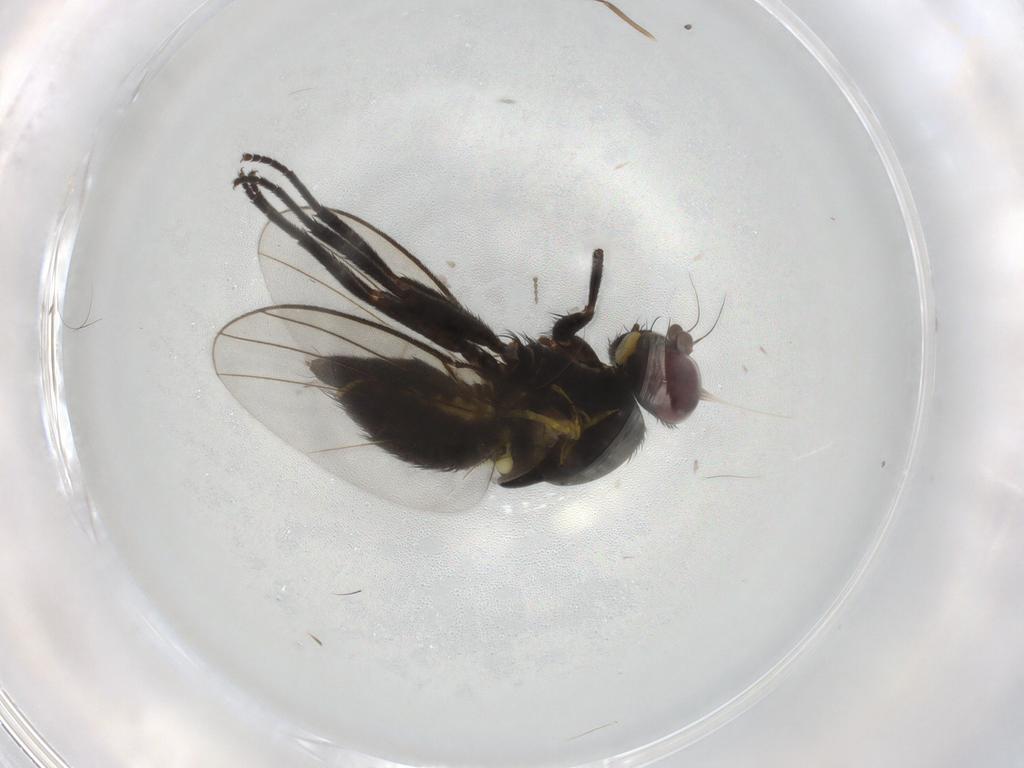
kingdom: Animalia
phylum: Arthropoda
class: Insecta
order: Diptera
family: Agromyzidae
